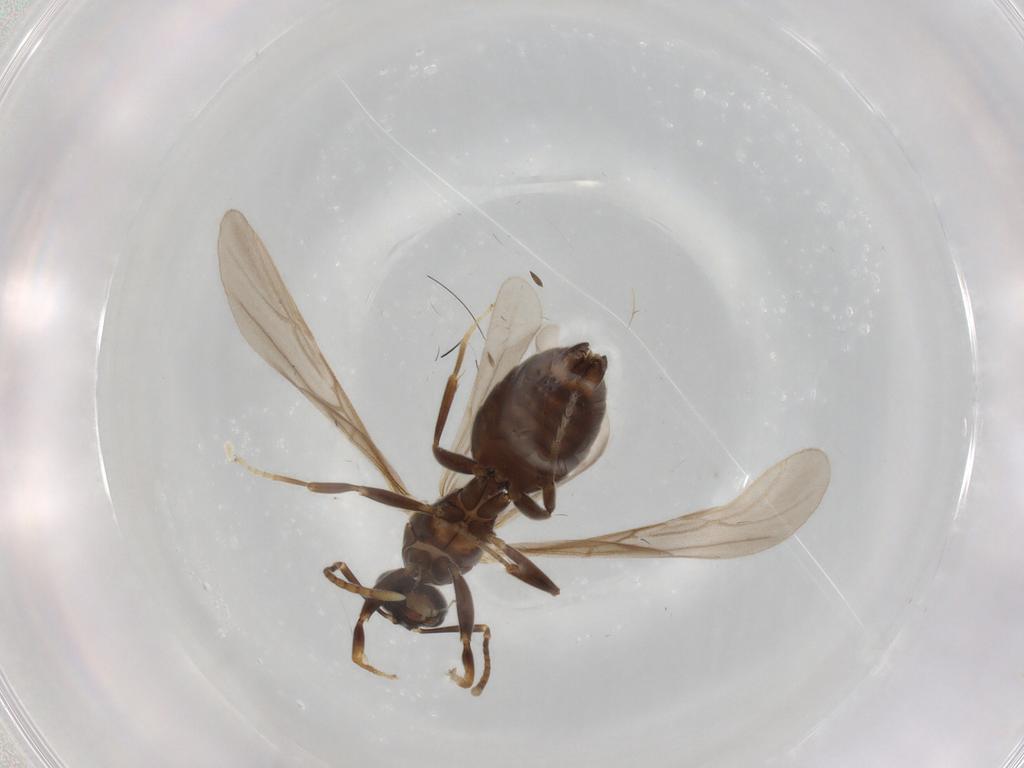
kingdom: Animalia
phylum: Arthropoda
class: Insecta
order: Hymenoptera
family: Formicidae
